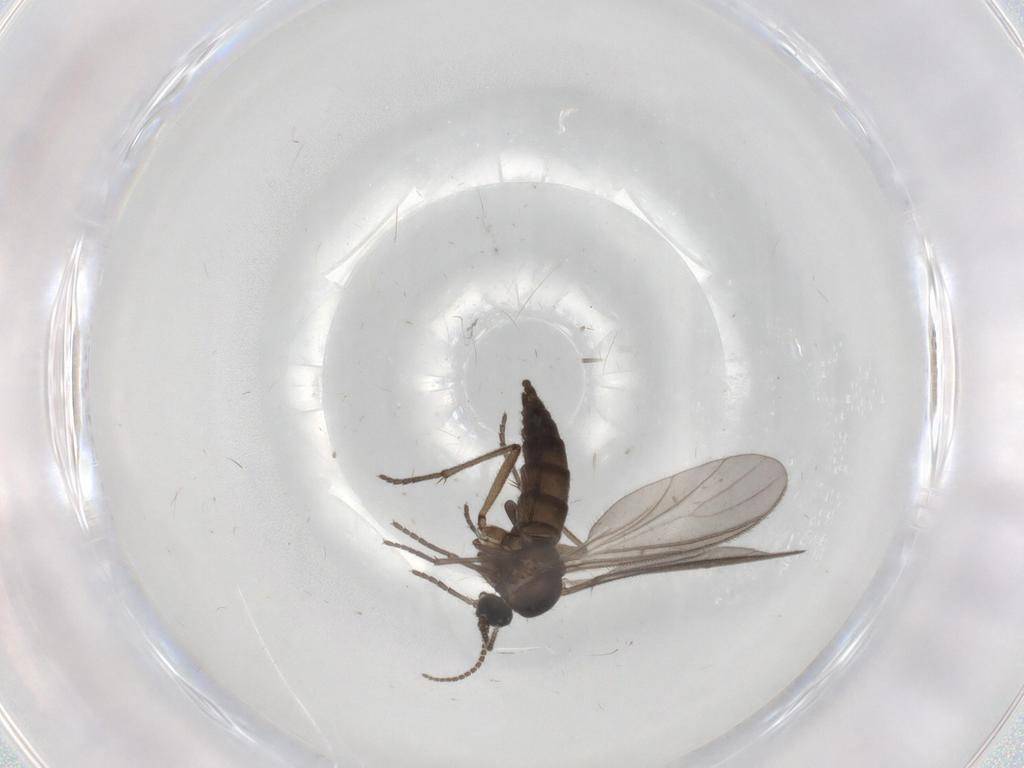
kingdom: Animalia
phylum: Arthropoda
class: Insecta
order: Diptera
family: Sciaridae
